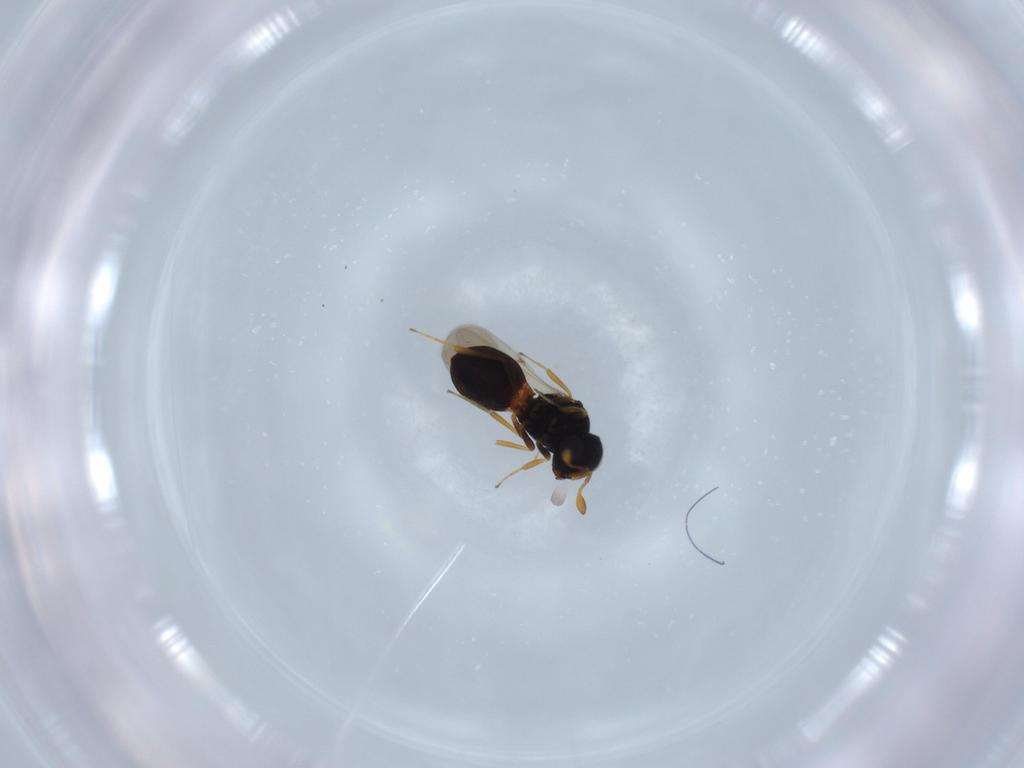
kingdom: Animalia
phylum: Arthropoda
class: Insecta
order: Hymenoptera
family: Scelionidae
